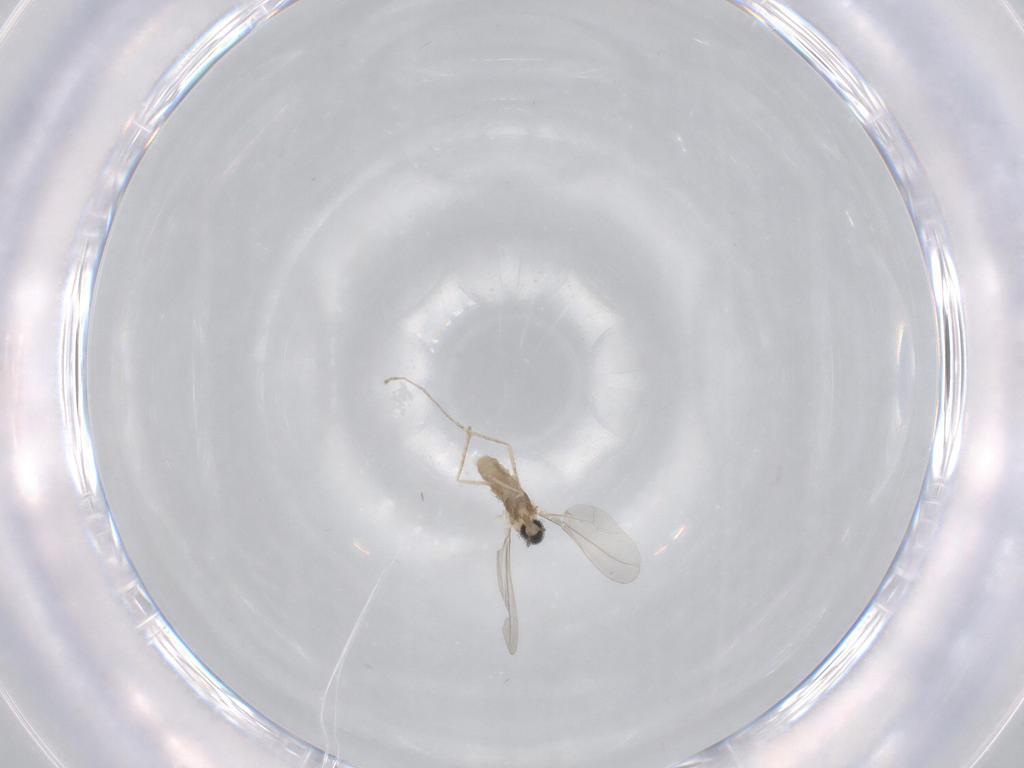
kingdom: Animalia
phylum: Arthropoda
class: Insecta
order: Diptera
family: Cecidomyiidae
